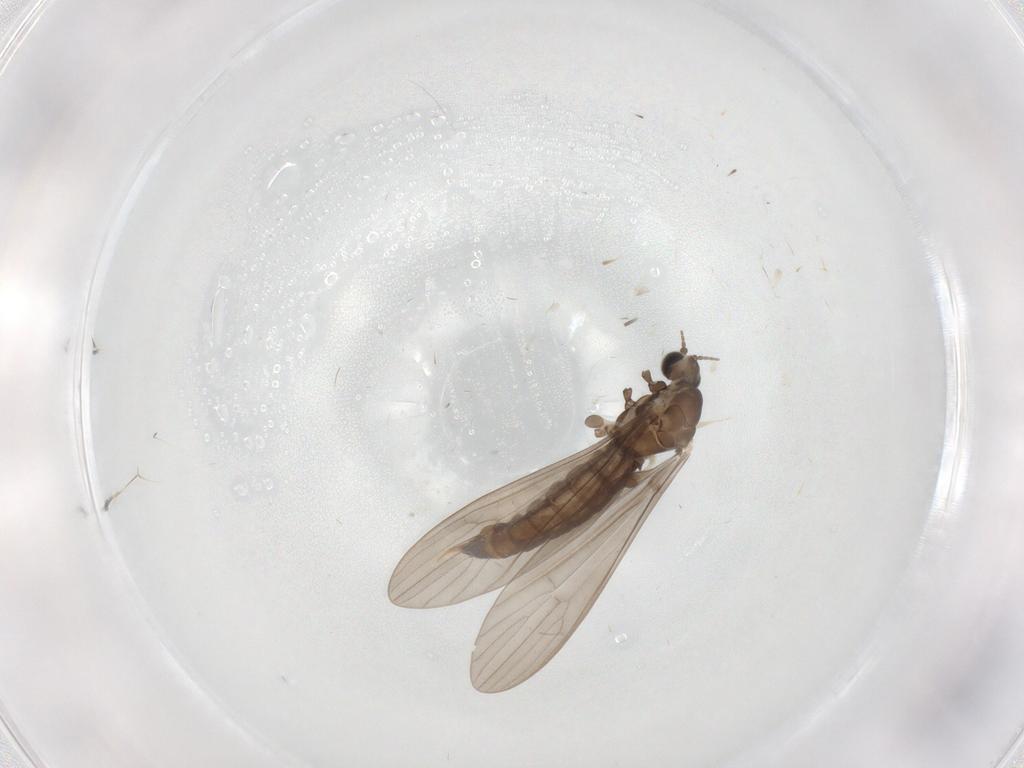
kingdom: Animalia
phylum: Arthropoda
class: Insecta
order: Diptera
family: Limoniidae
